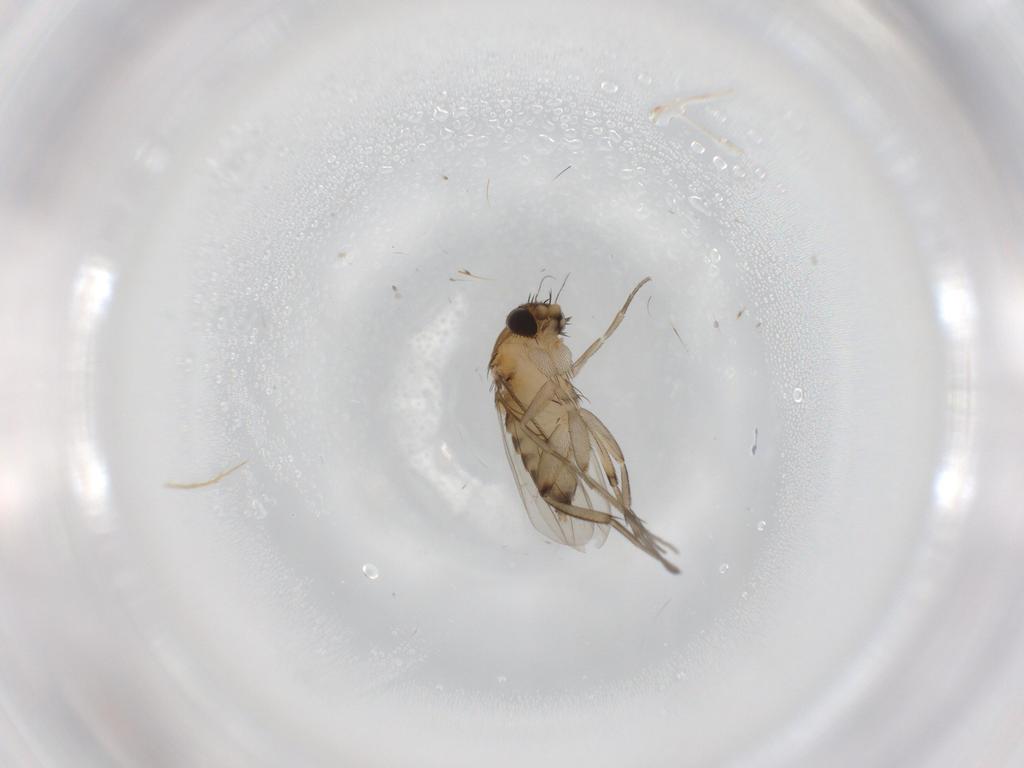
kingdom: Animalia
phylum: Arthropoda
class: Insecta
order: Diptera
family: Phoridae
